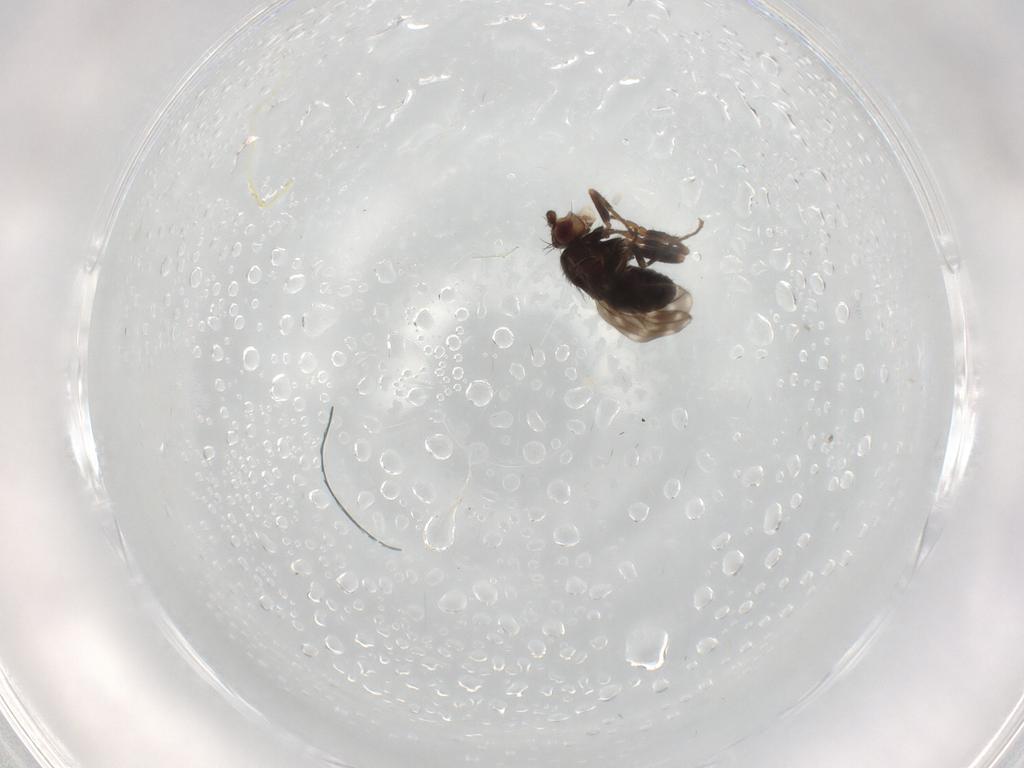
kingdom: Animalia
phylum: Arthropoda
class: Insecta
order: Diptera
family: Sphaeroceridae
